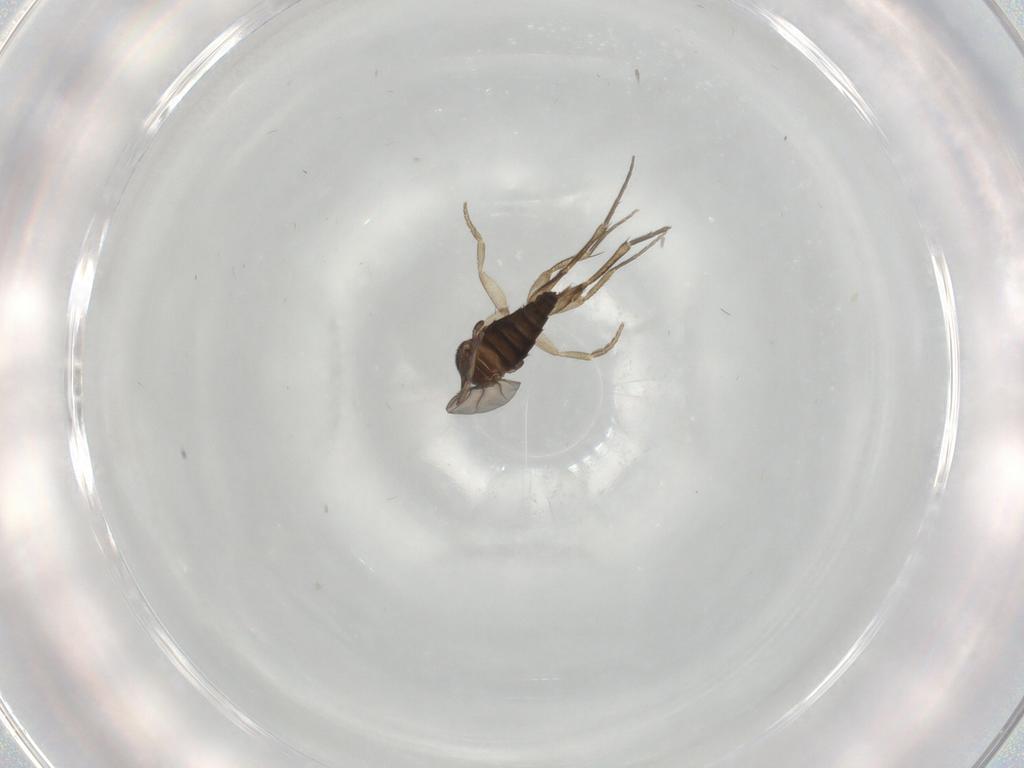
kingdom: Animalia
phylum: Arthropoda
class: Insecta
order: Diptera
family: Phoridae
